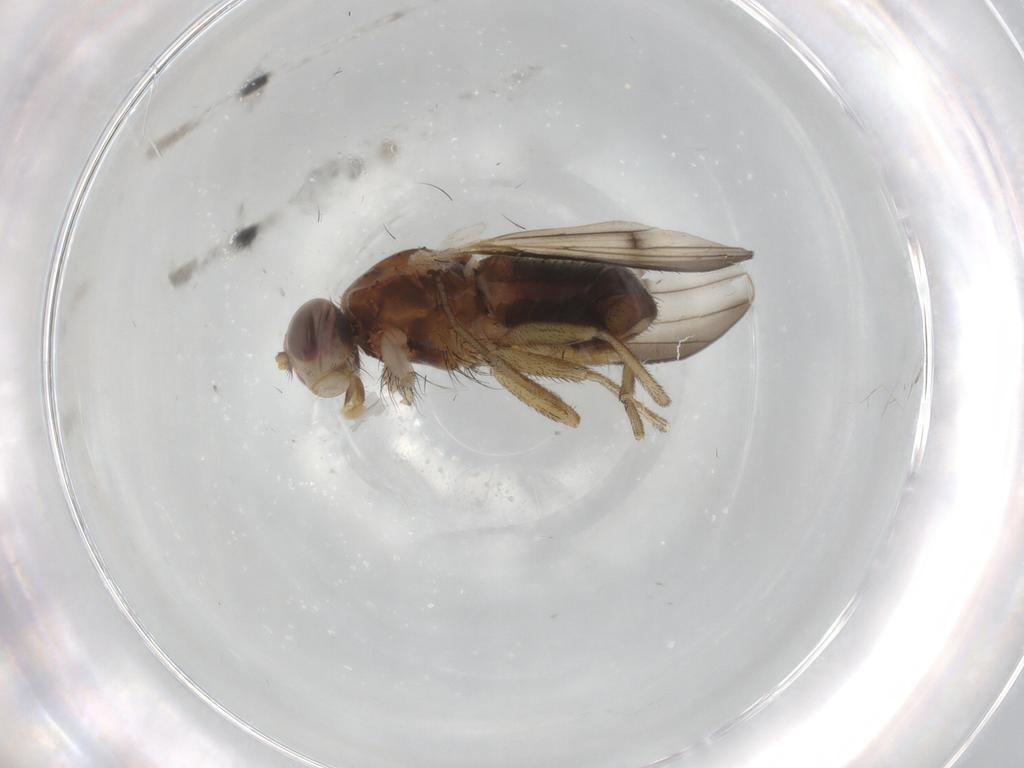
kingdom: Animalia
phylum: Arthropoda
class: Insecta
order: Diptera
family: Heleomyzidae
